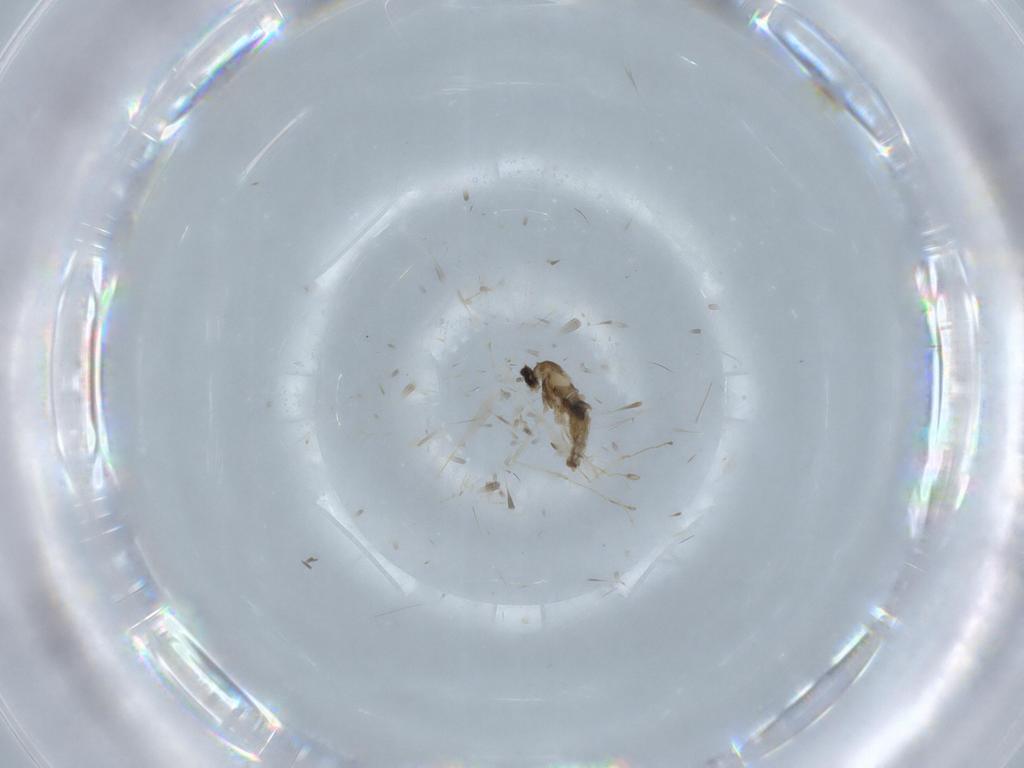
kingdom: Animalia
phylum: Arthropoda
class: Insecta
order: Diptera
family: Cecidomyiidae
